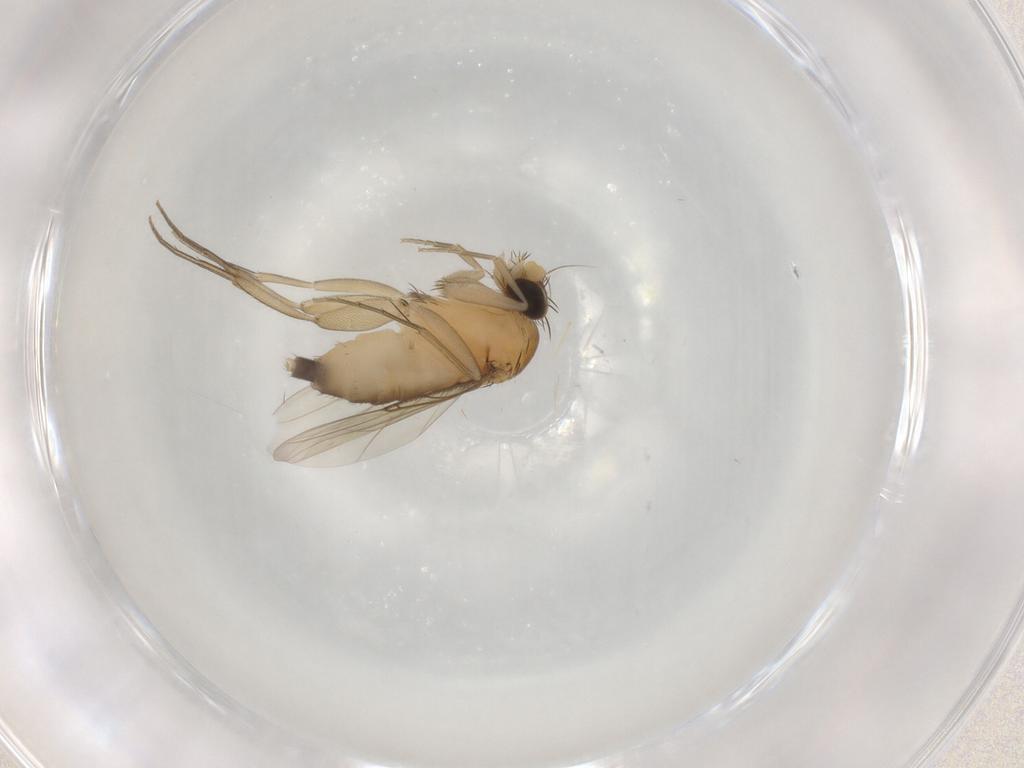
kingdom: Animalia
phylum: Arthropoda
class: Insecta
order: Diptera
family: Phoridae
